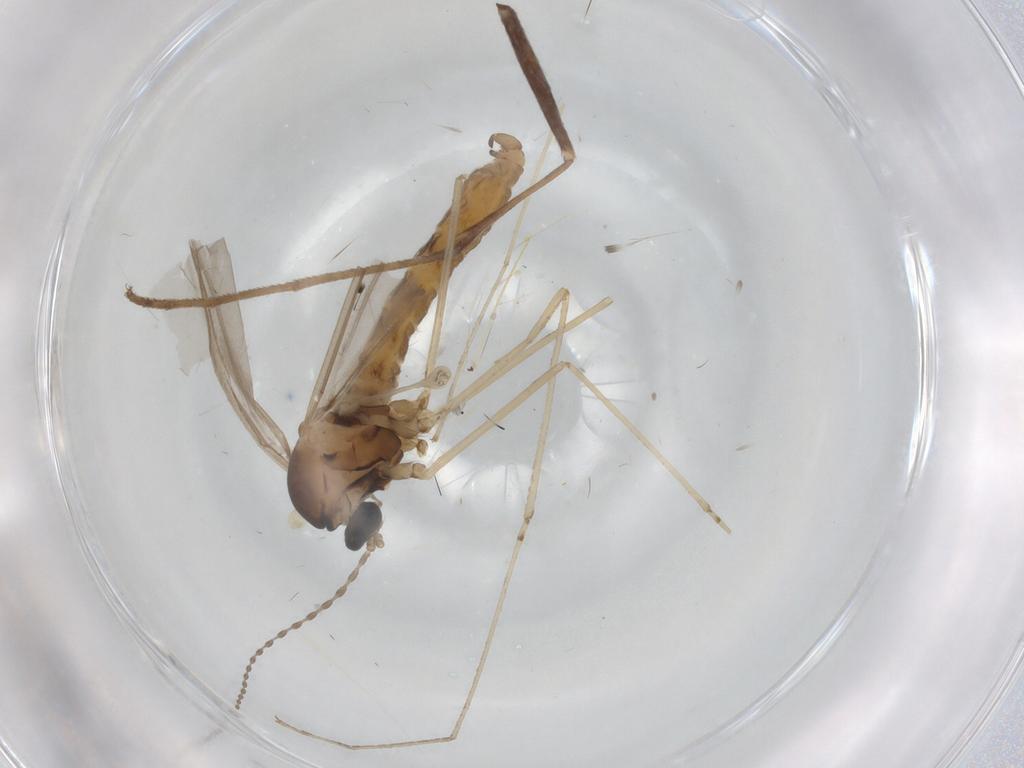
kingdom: Animalia
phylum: Arthropoda
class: Insecta
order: Diptera
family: Cecidomyiidae
